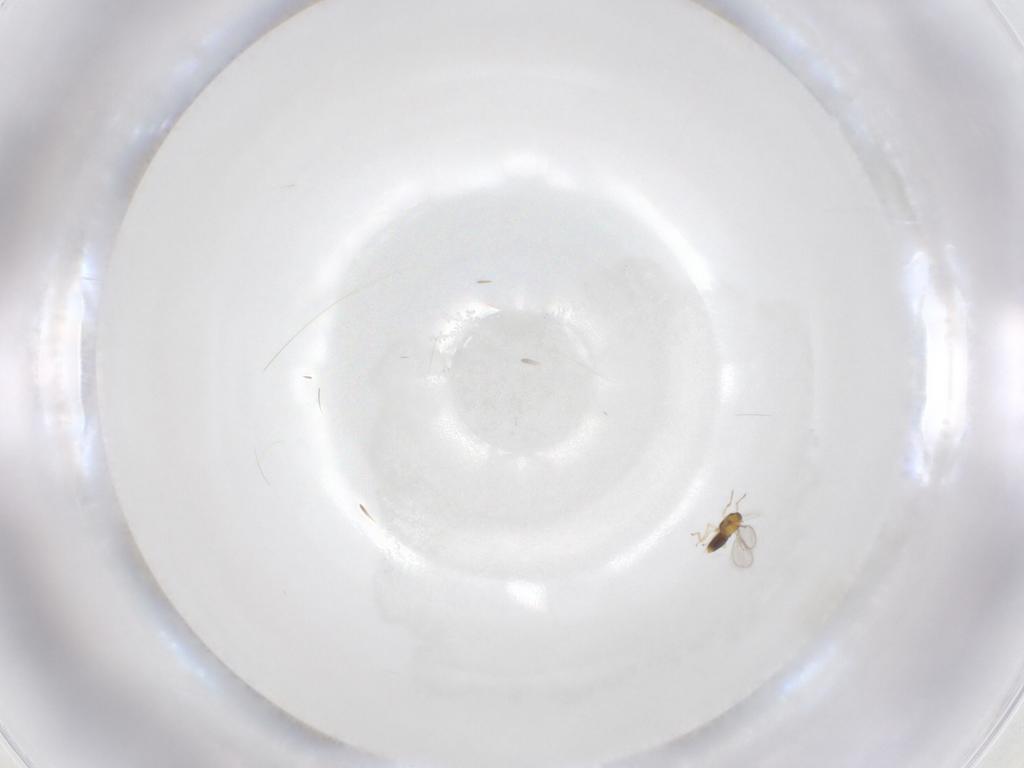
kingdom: Animalia
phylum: Arthropoda
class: Insecta
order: Hymenoptera
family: Aphelinidae
